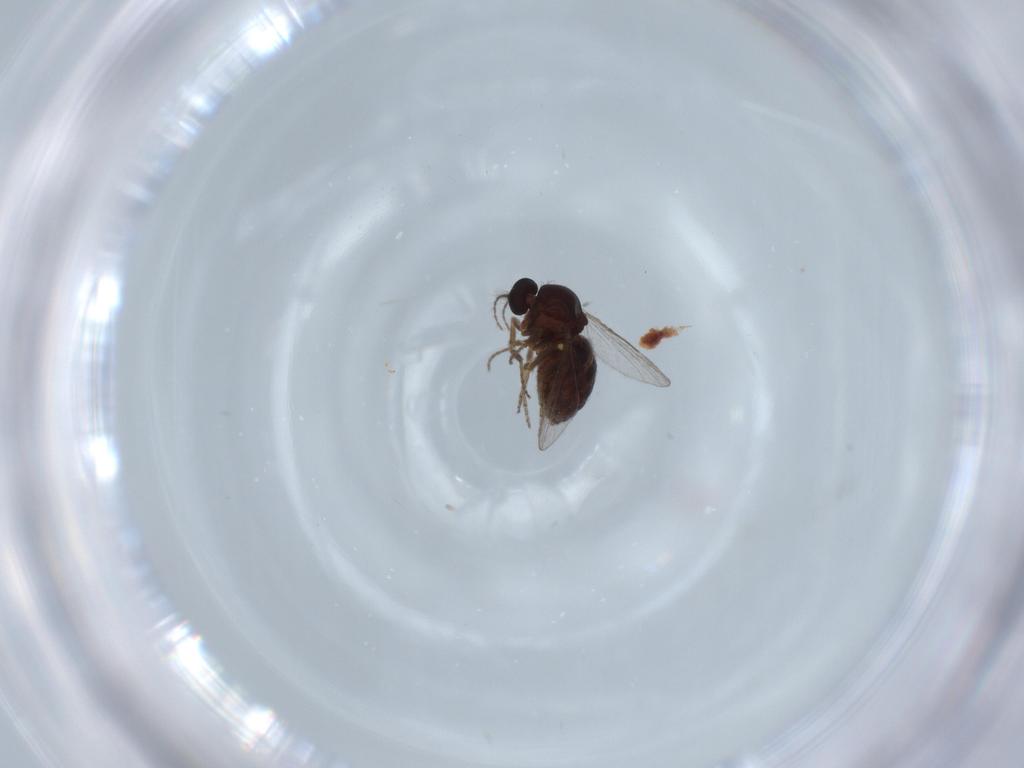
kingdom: Animalia
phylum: Arthropoda
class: Insecta
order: Diptera
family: Ceratopogonidae
